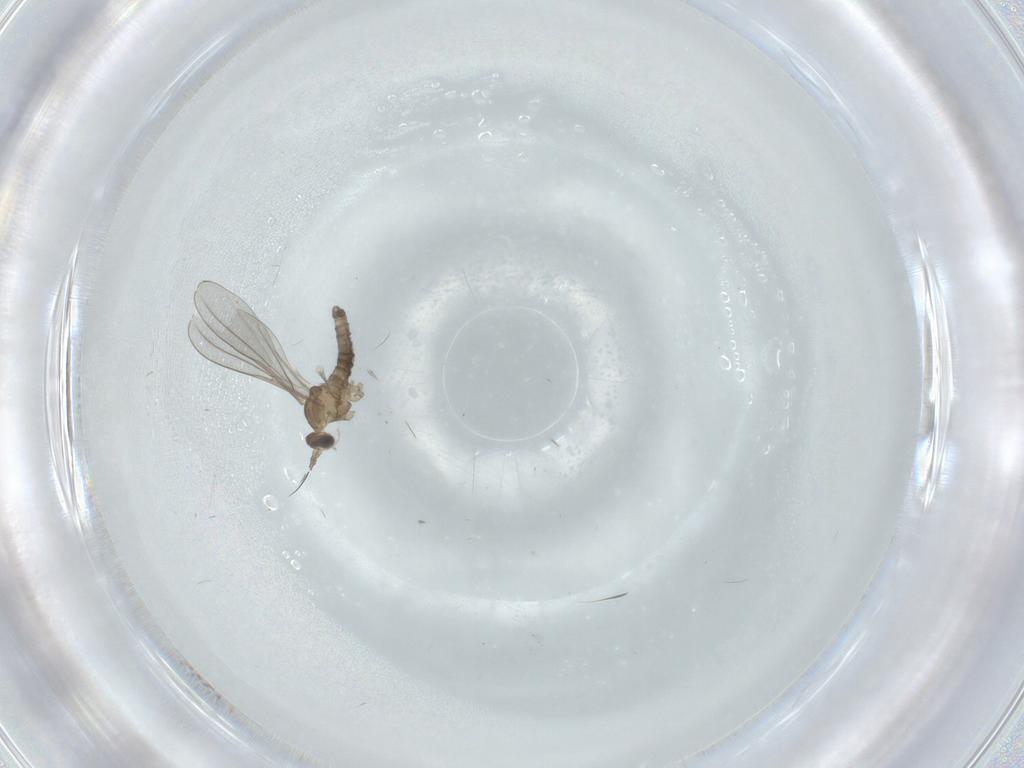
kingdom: Animalia
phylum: Arthropoda
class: Insecta
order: Diptera
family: Cecidomyiidae
